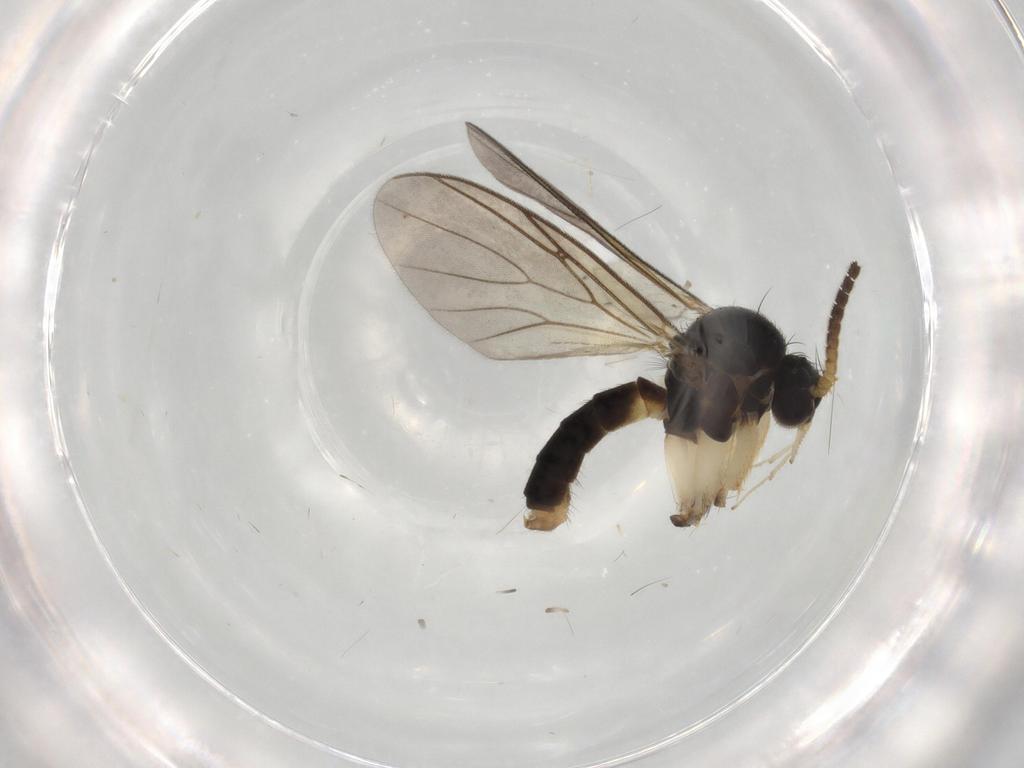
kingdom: Animalia
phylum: Arthropoda
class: Insecta
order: Diptera
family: Cecidomyiidae
